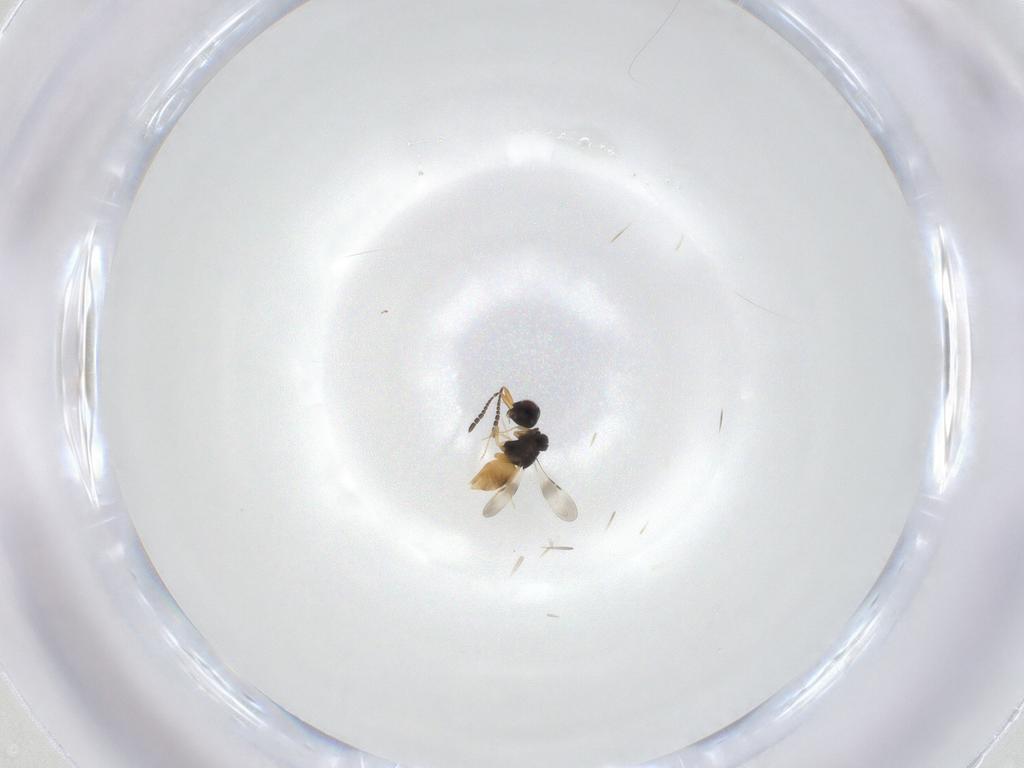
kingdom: Animalia
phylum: Arthropoda
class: Insecta
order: Hymenoptera
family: Ceraphronidae
